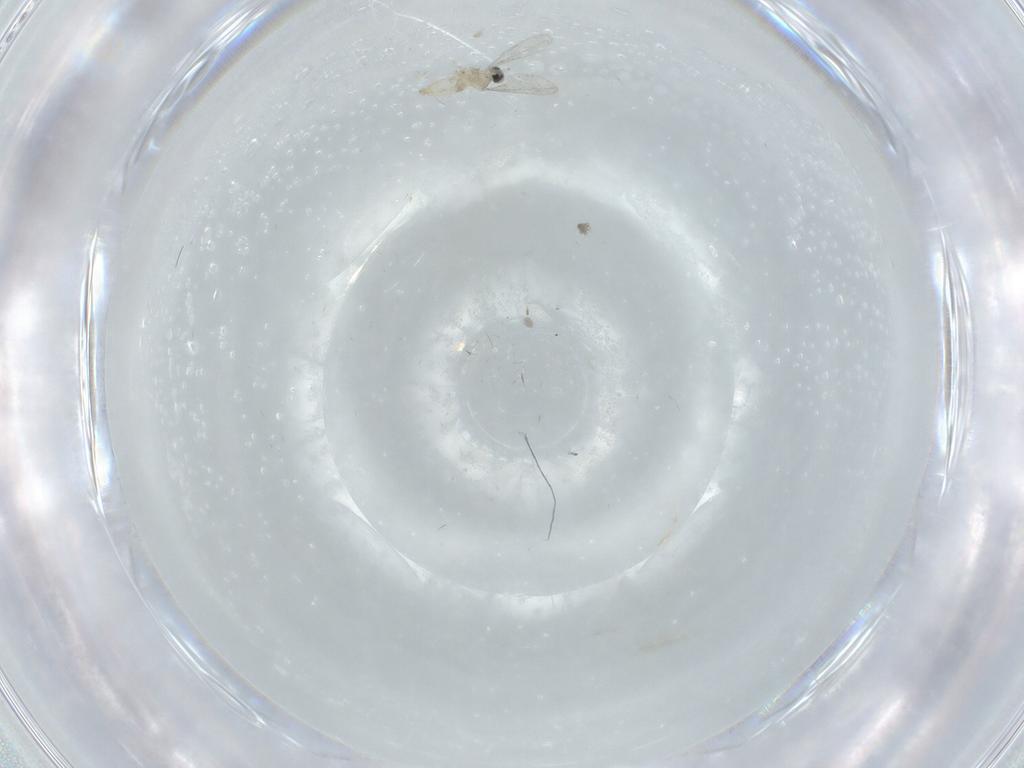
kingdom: Animalia
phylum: Arthropoda
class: Insecta
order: Diptera
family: Cecidomyiidae
